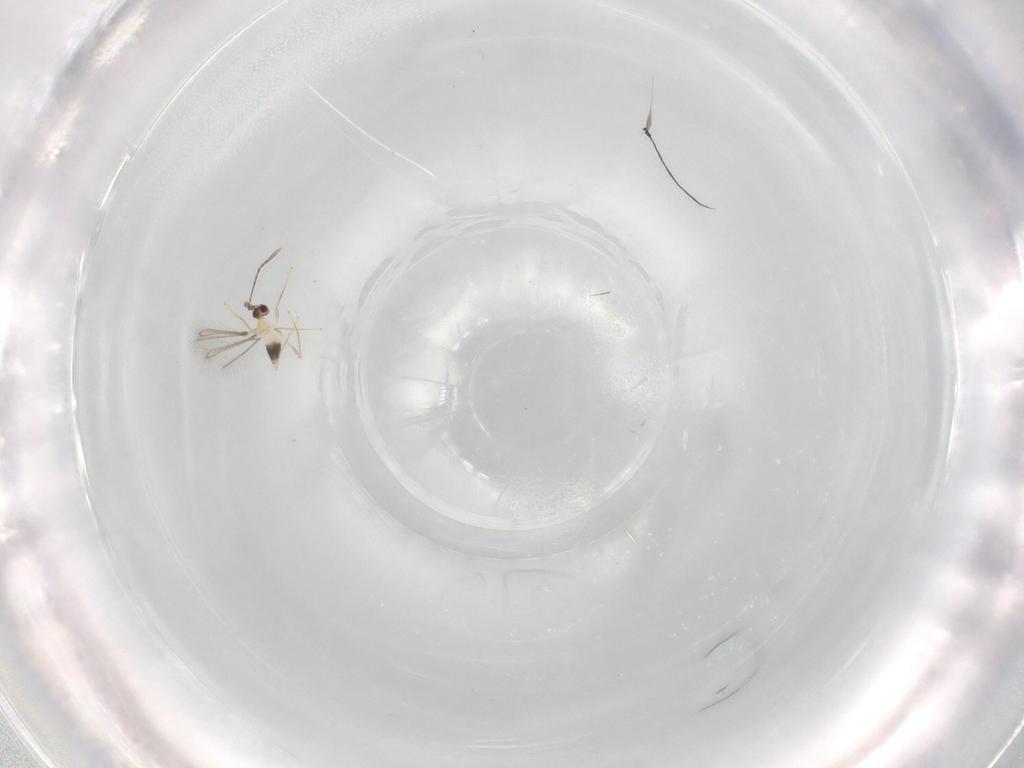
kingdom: Animalia
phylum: Arthropoda
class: Insecta
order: Hymenoptera
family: Mymaridae
